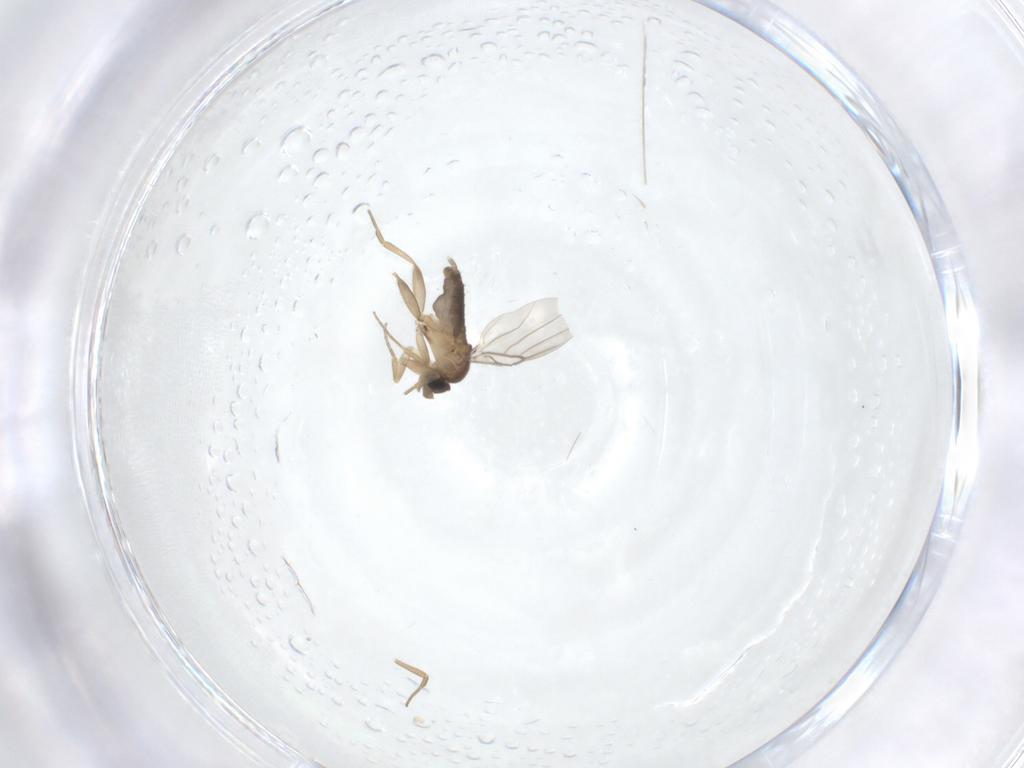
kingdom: Animalia
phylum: Arthropoda
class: Insecta
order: Diptera
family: Phoridae
